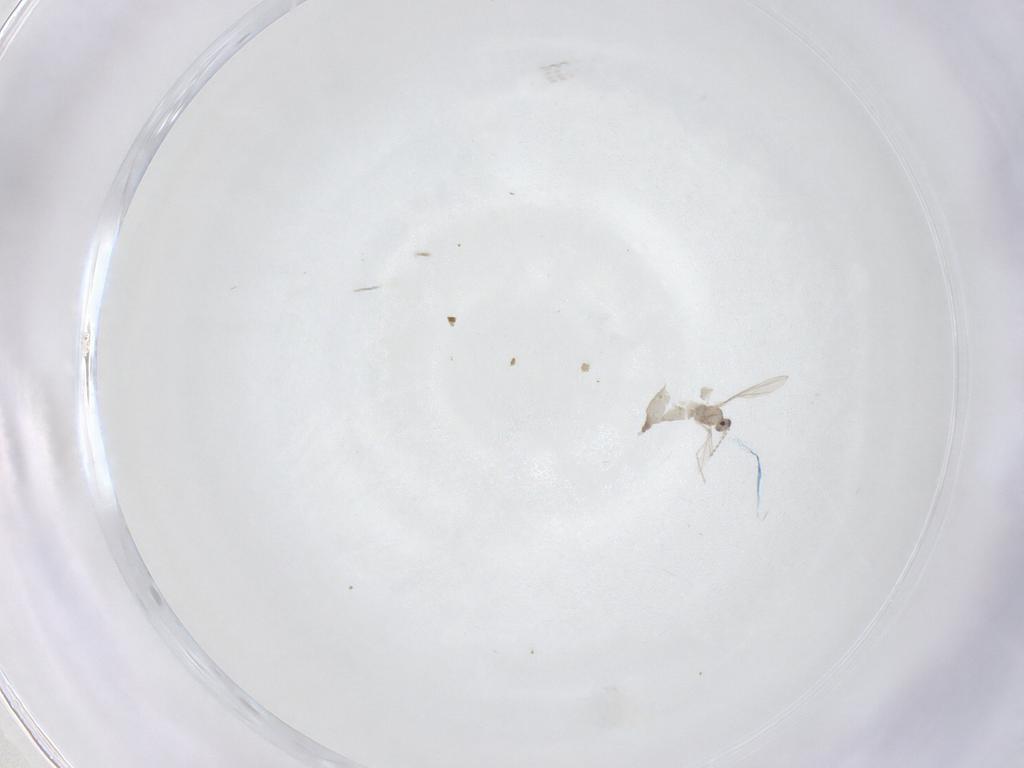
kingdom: Animalia
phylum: Arthropoda
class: Insecta
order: Diptera
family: Cecidomyiidae
